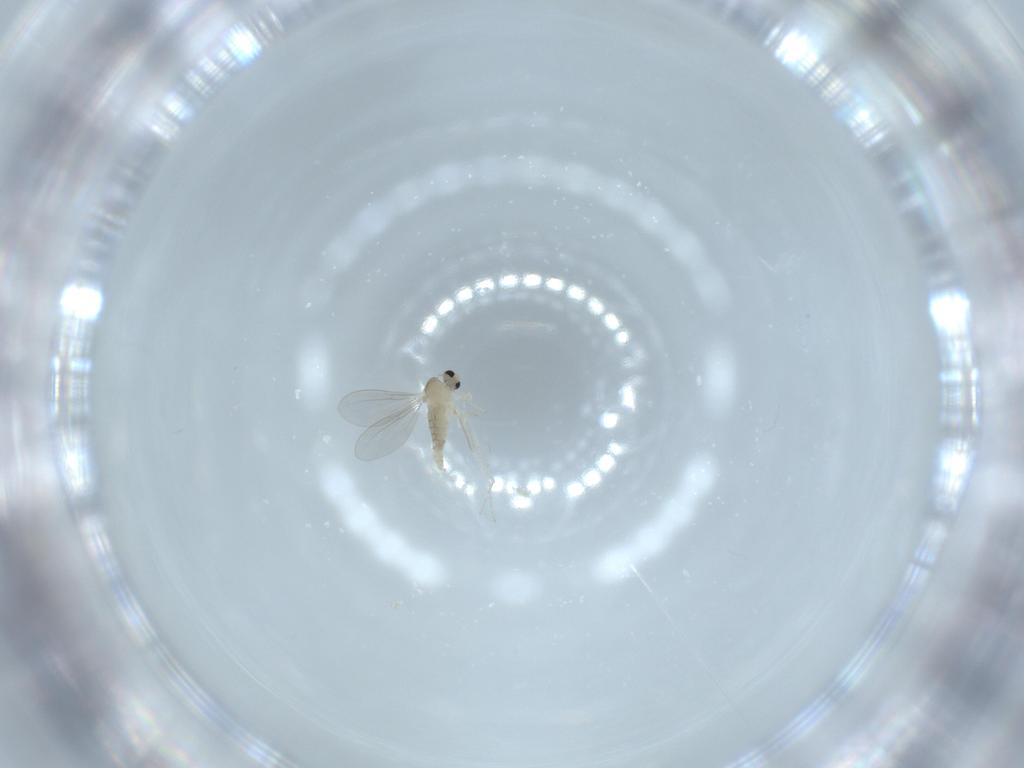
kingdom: Animalia
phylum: Arthropoda
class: Insecta
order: Diptera
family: Cecidomyiidae
